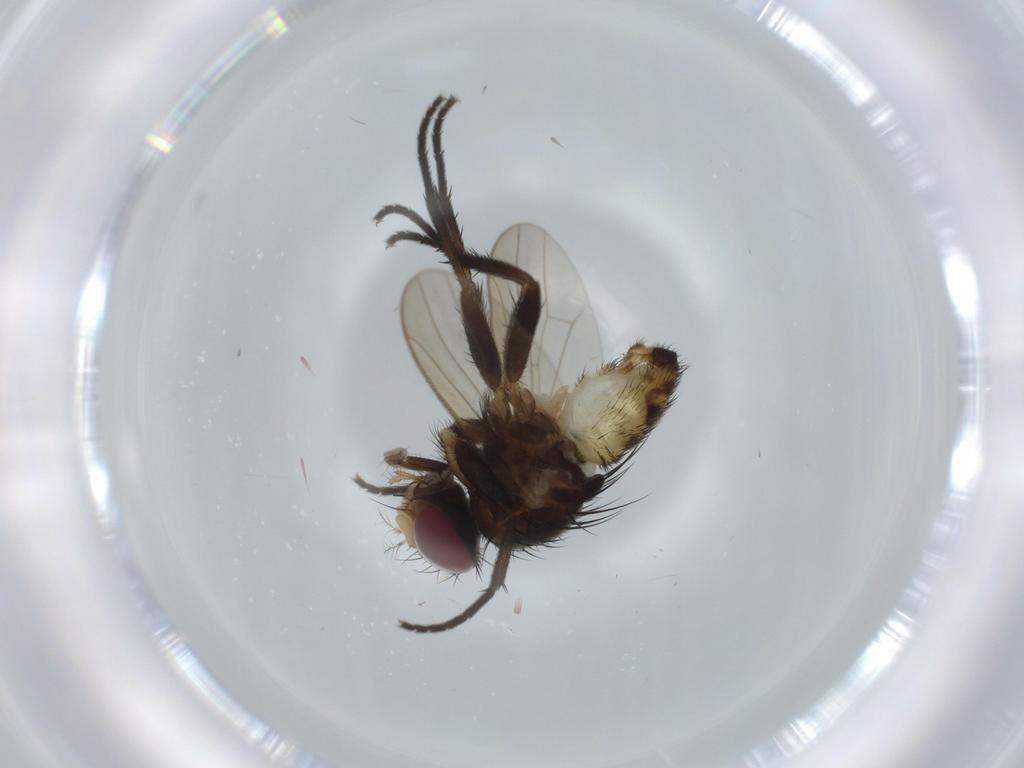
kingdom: Animalia
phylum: Arthropoda
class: Insecta
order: Diptera
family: Anthomyiidae
